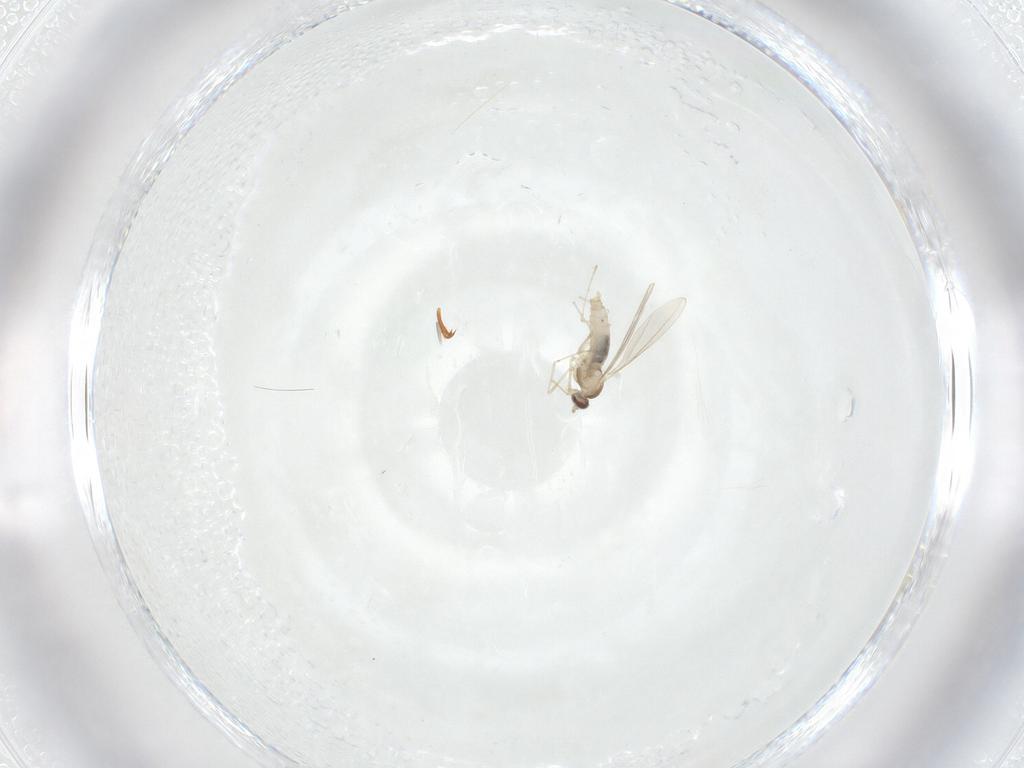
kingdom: Animalia
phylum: Arthropoda
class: Insecta
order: Diptera
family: Cecidomyiidae
